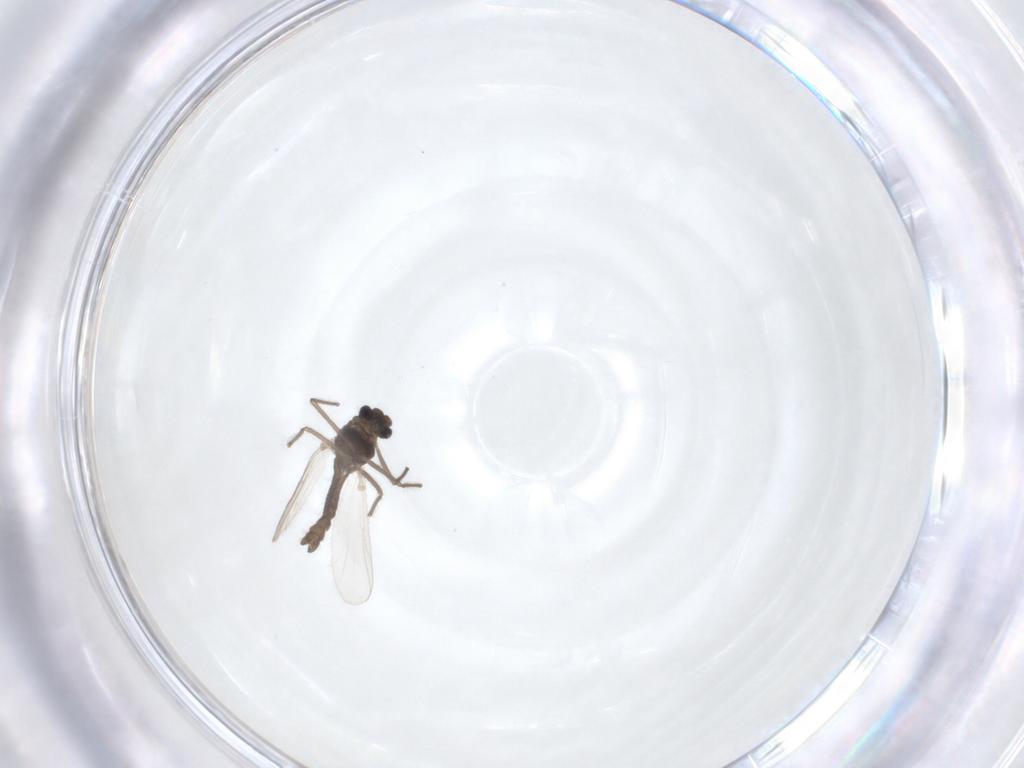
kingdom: Animalia
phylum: Arthropoda
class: Insecta
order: Diptera
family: Chironomidae
